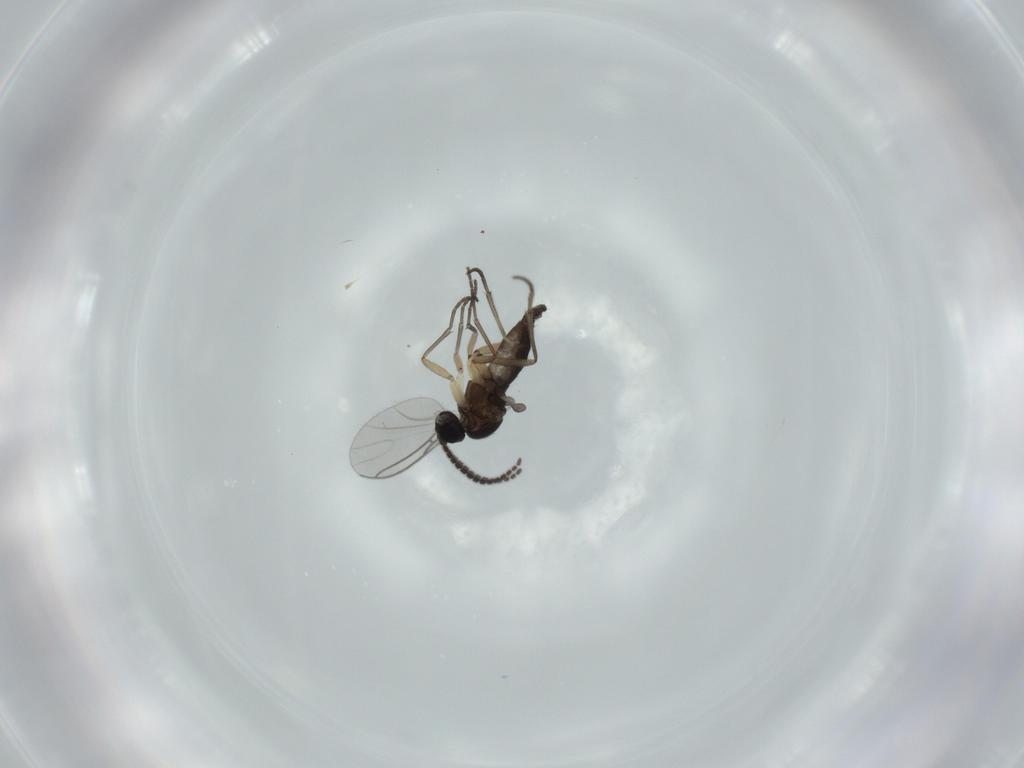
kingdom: Animalia
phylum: Arthropoda
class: Insecta
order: Diptera
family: Sciaridae
